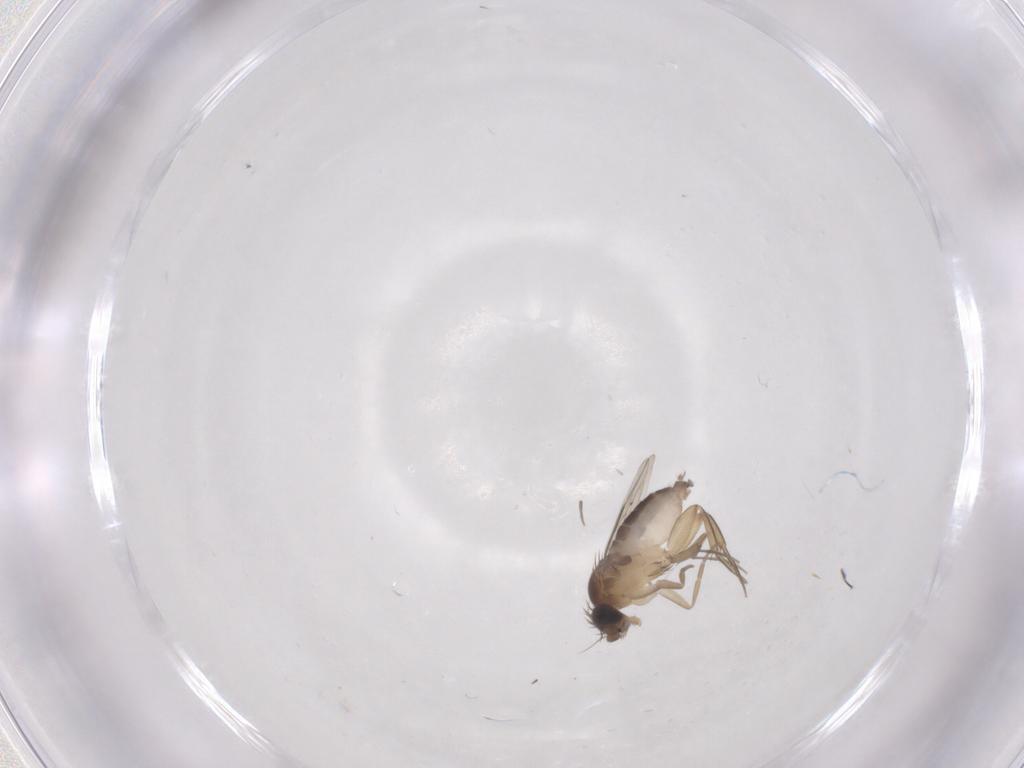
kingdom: Animalia
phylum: Arthropoda
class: Insecta
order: Diptera
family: Phoridae
